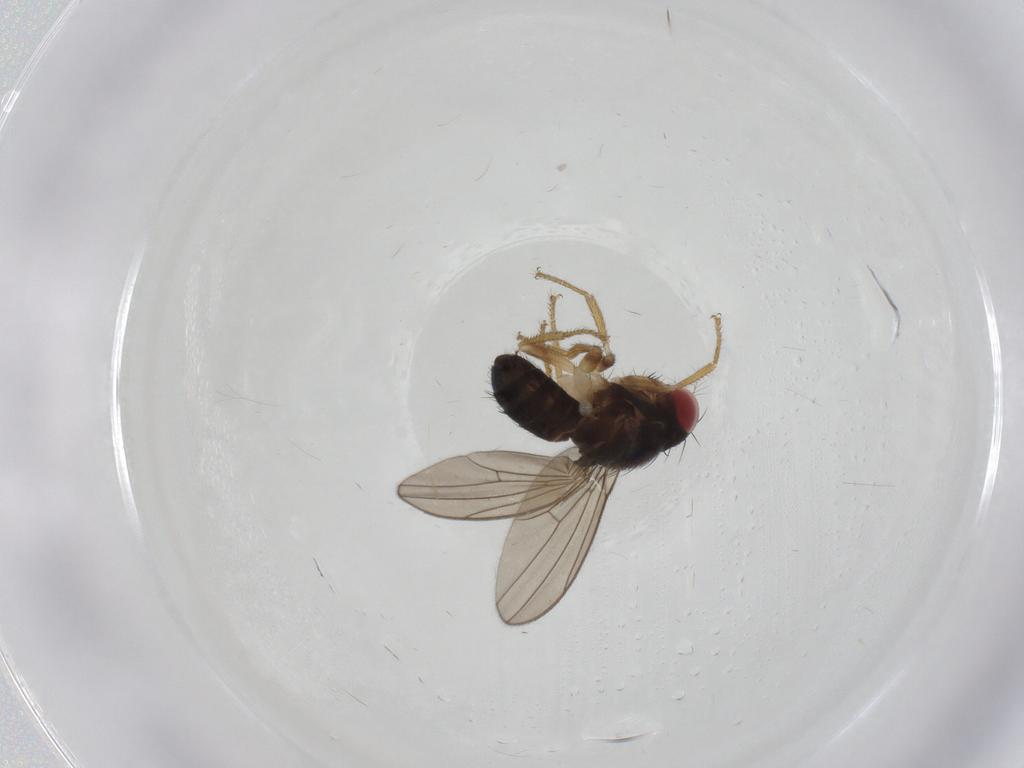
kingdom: Animalia
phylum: Arthropoda
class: Insecta
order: Diptera
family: Drosophilidae
